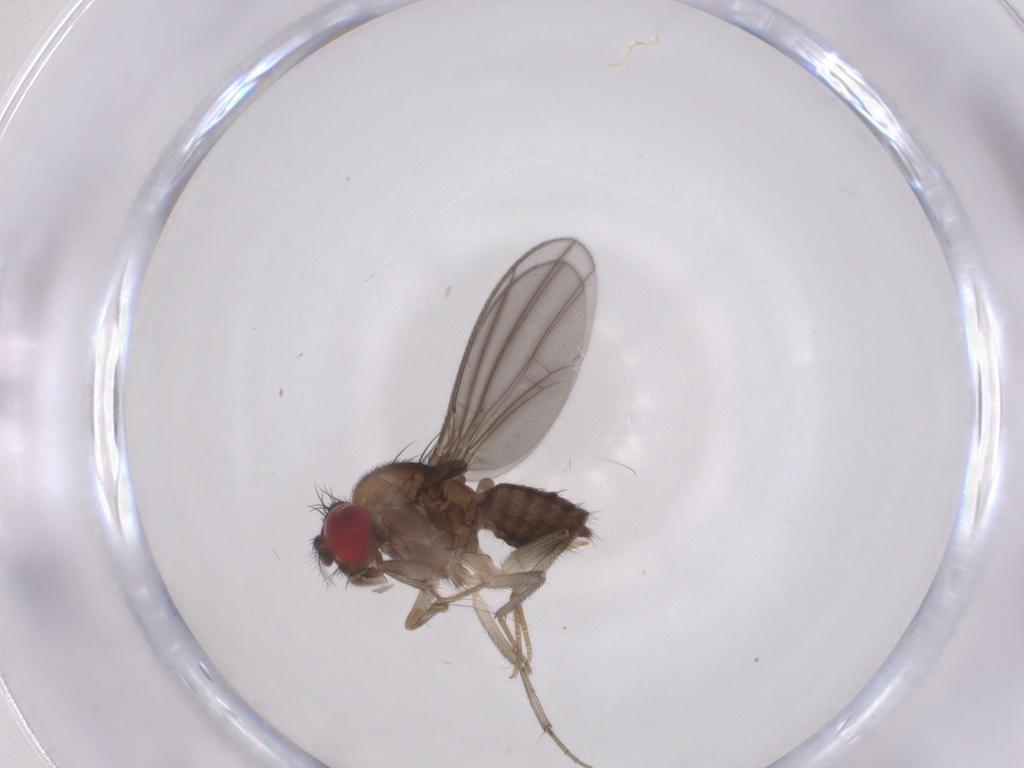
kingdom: Animalia
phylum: Arthropoda
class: Insecta
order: Diptera
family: Drosophilidae
